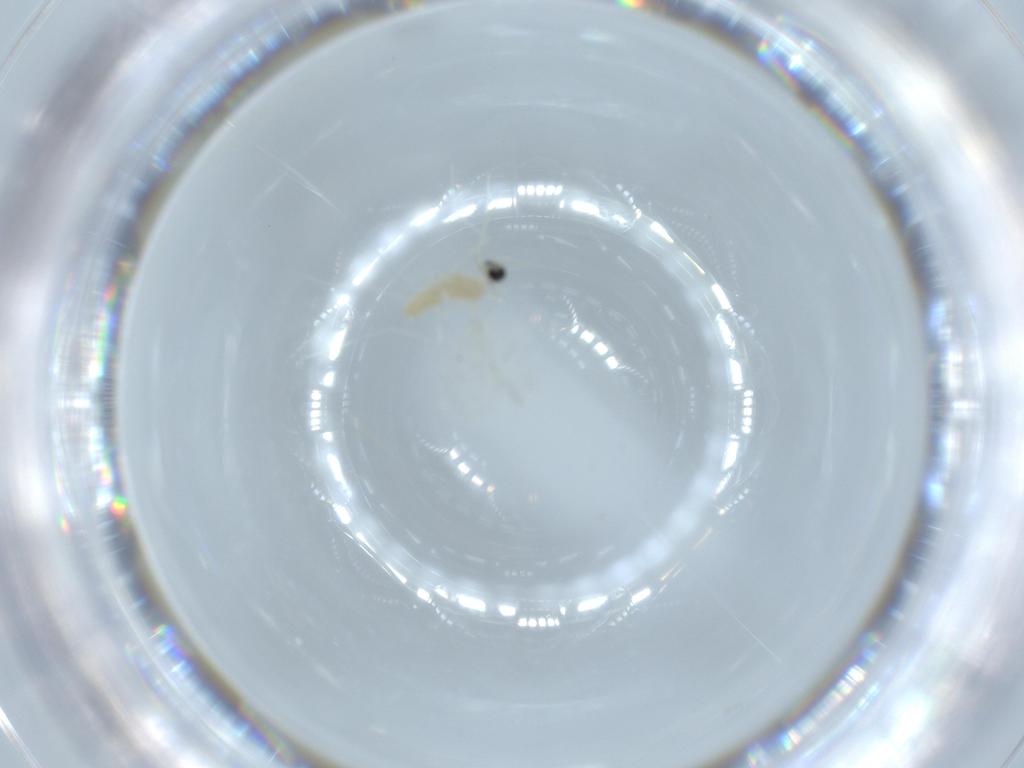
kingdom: Animalia
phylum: Arthropoda
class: Insecta
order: Diptera
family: Cecidomyiidae
